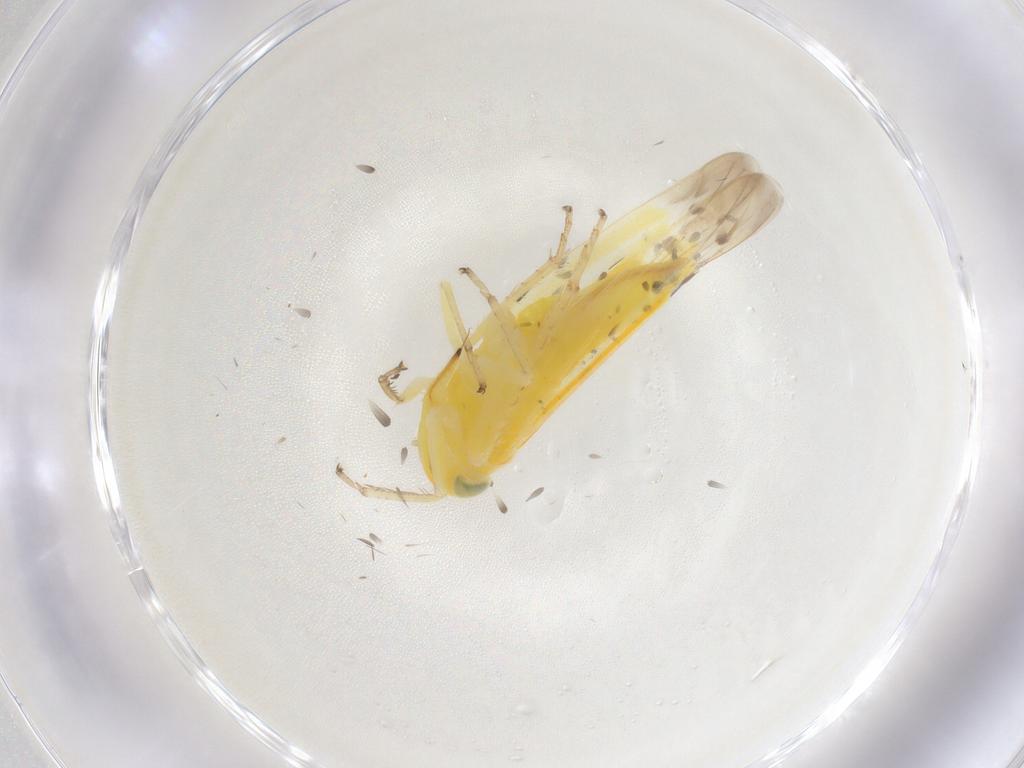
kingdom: Animalia
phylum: Arthropoda
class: Insecta
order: Hemiptera
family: Cicadellidae
